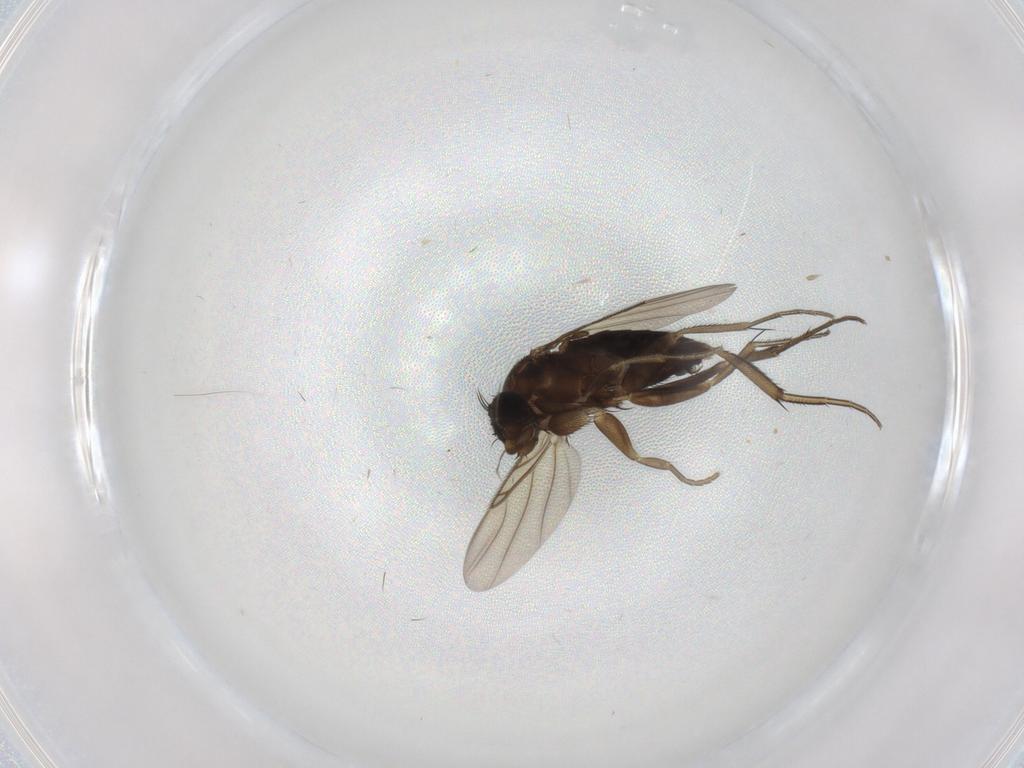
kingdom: Animalia
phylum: Arthropoda
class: Insecta
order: Diptera
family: Phoridae
